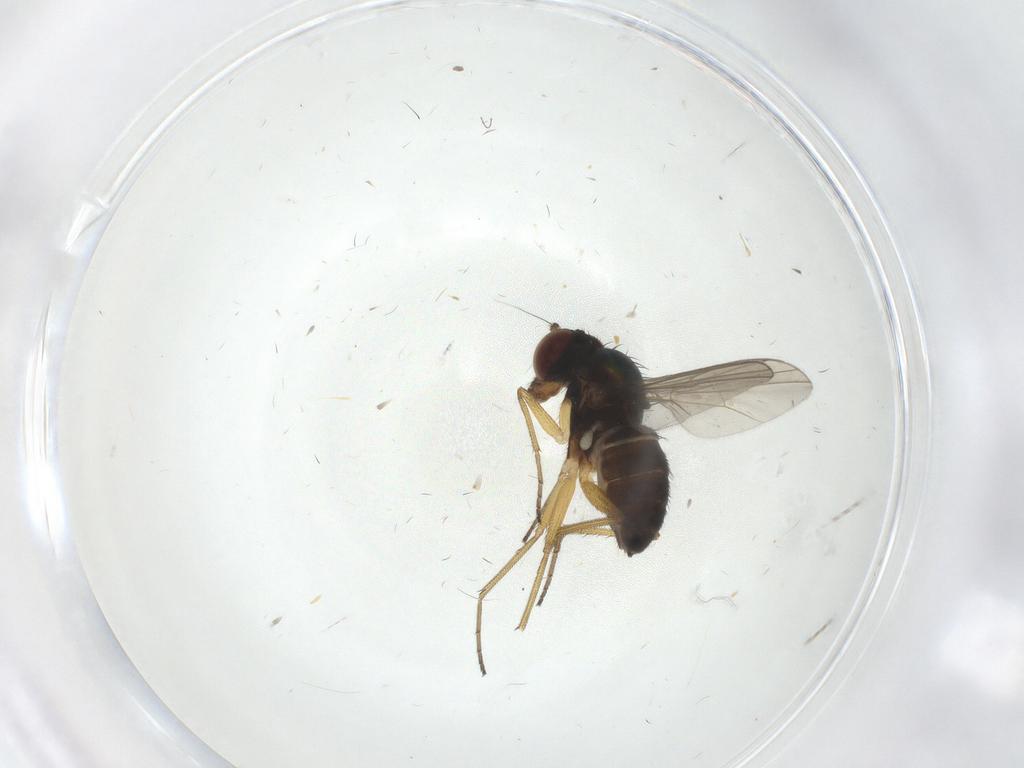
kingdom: Animalia
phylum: Arthropoda
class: Insecta
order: Diptera
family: Dolichopodidae
